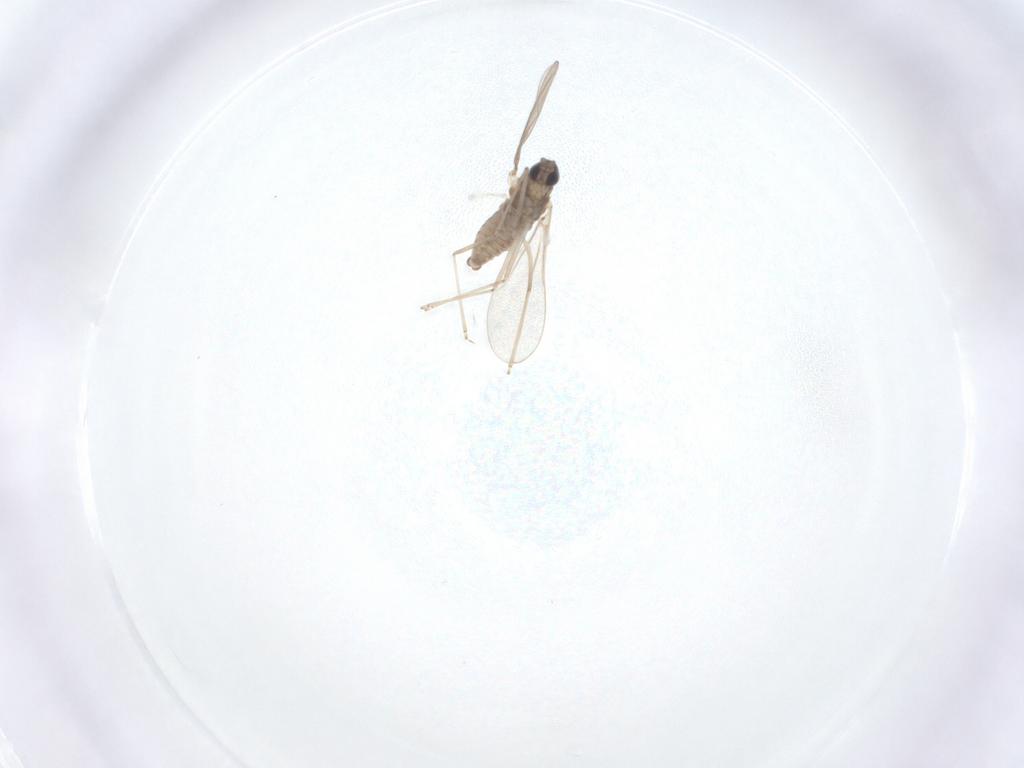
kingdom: Animalia
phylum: Arthropoda
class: Insecta
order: Diptera
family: Cecidomyiidae
